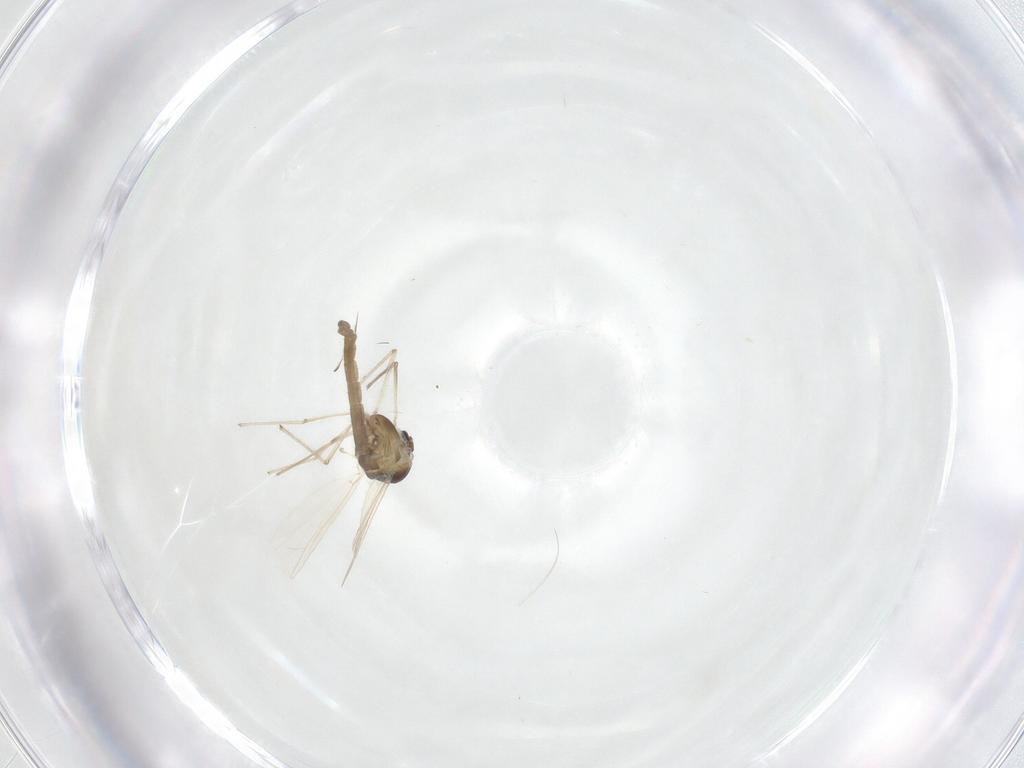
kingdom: Animalia
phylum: Arthropoda
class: Insecta
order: Diptera
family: Chironomidae
